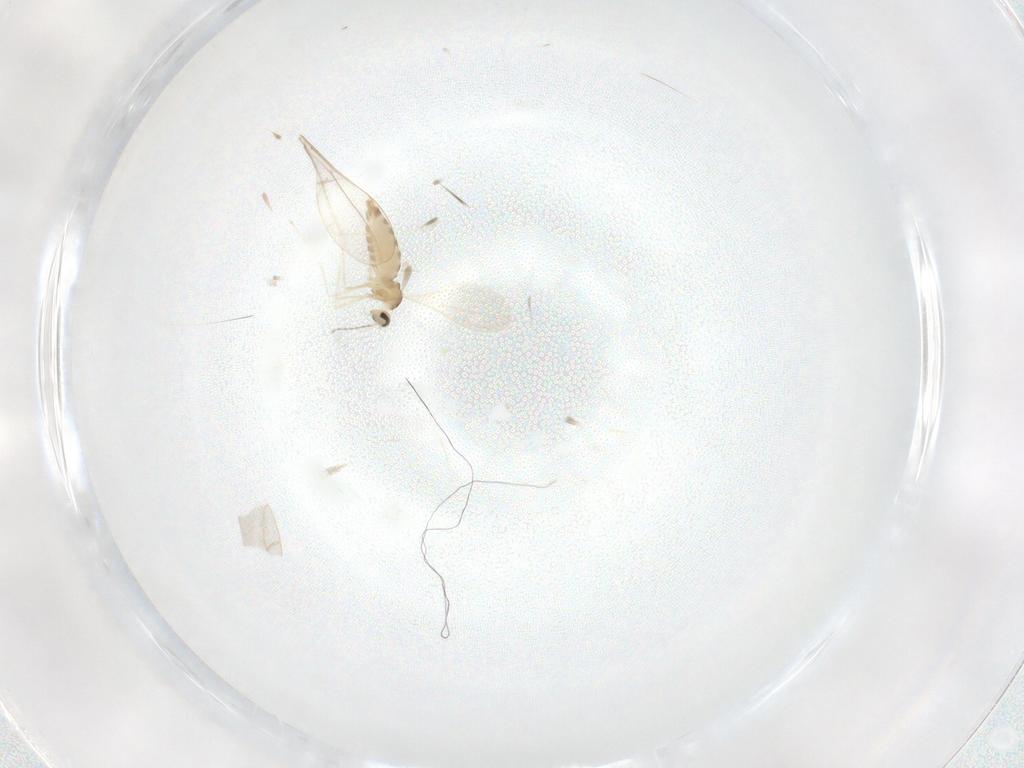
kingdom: Animalia
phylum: Arthropoda
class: Insecta
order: Diptera
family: Cecidomyiidae
